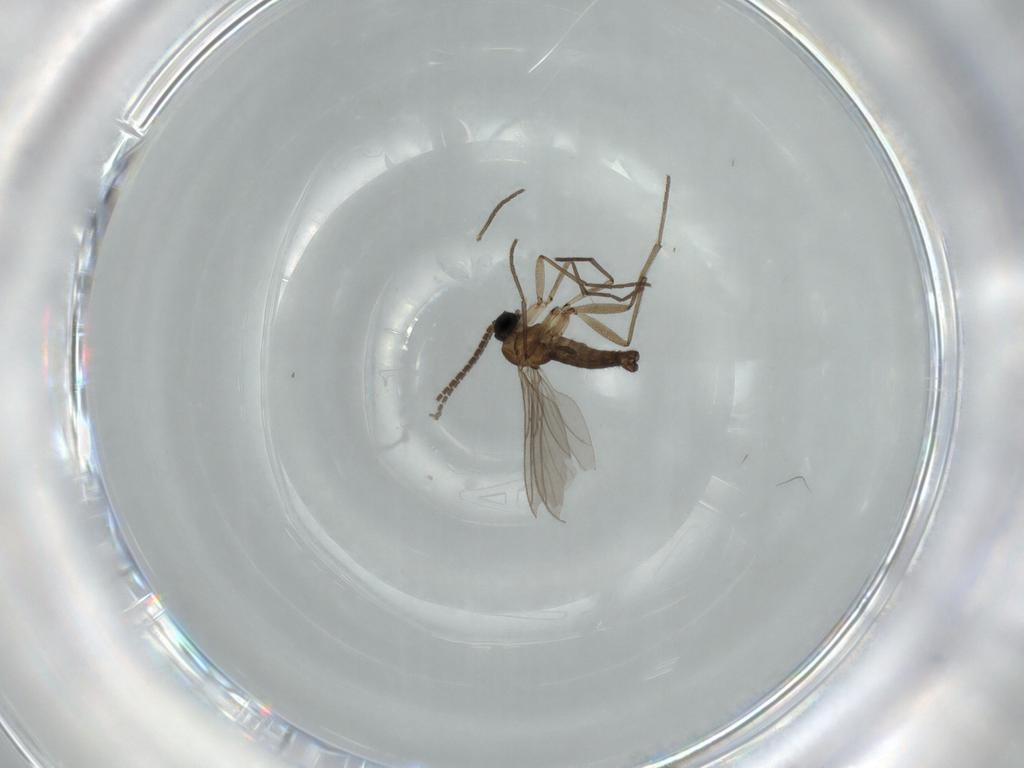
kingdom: Animalia
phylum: Arthropoda
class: Insecta
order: Diptera
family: Sciaridae
